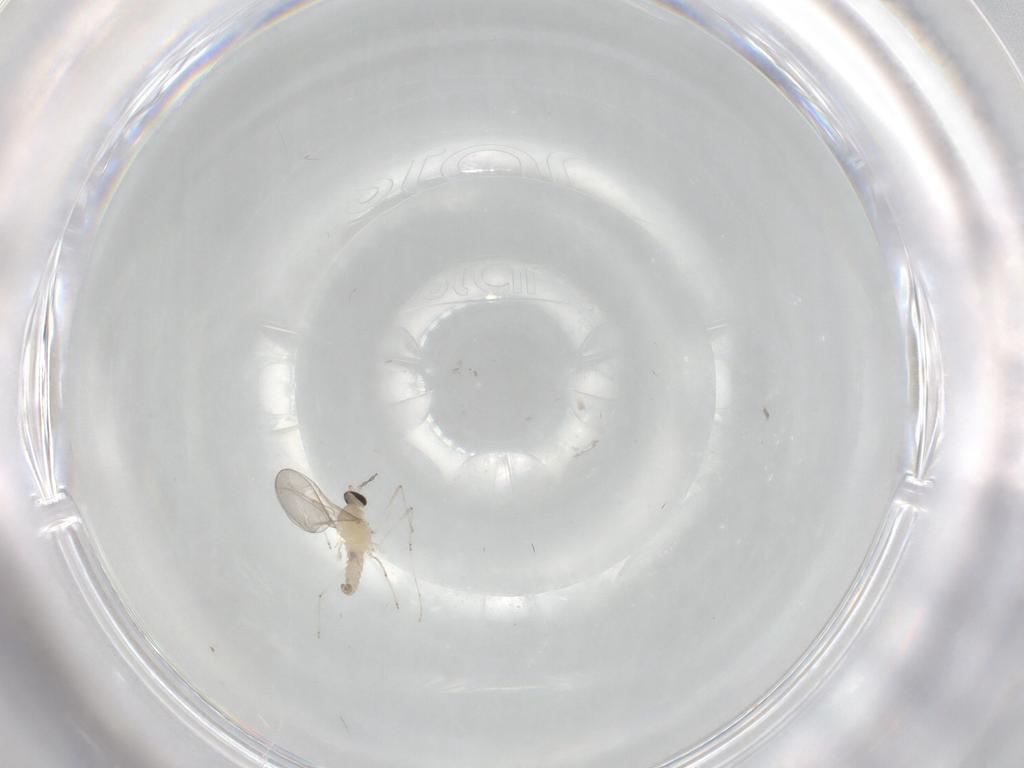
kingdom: Animalia
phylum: Arthropoda
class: Insecta
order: Diptera
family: Cecidomyiidae
